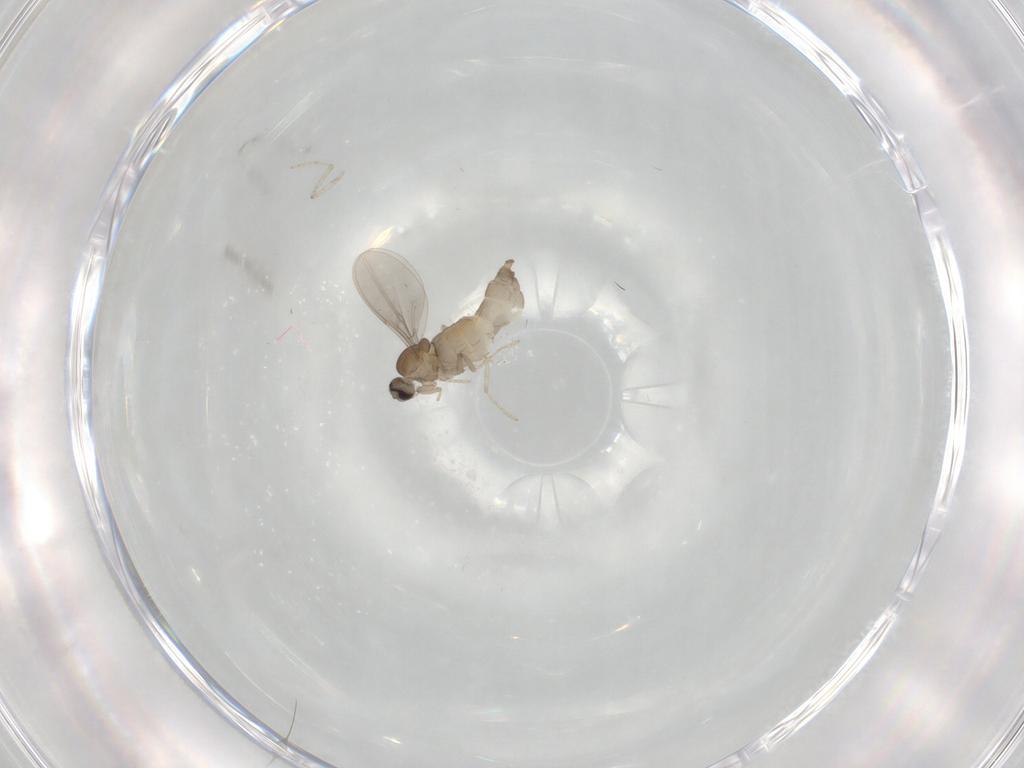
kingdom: Animalia
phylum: Arthropoda
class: Insecta
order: Diptera
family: Cecidomyiidae
